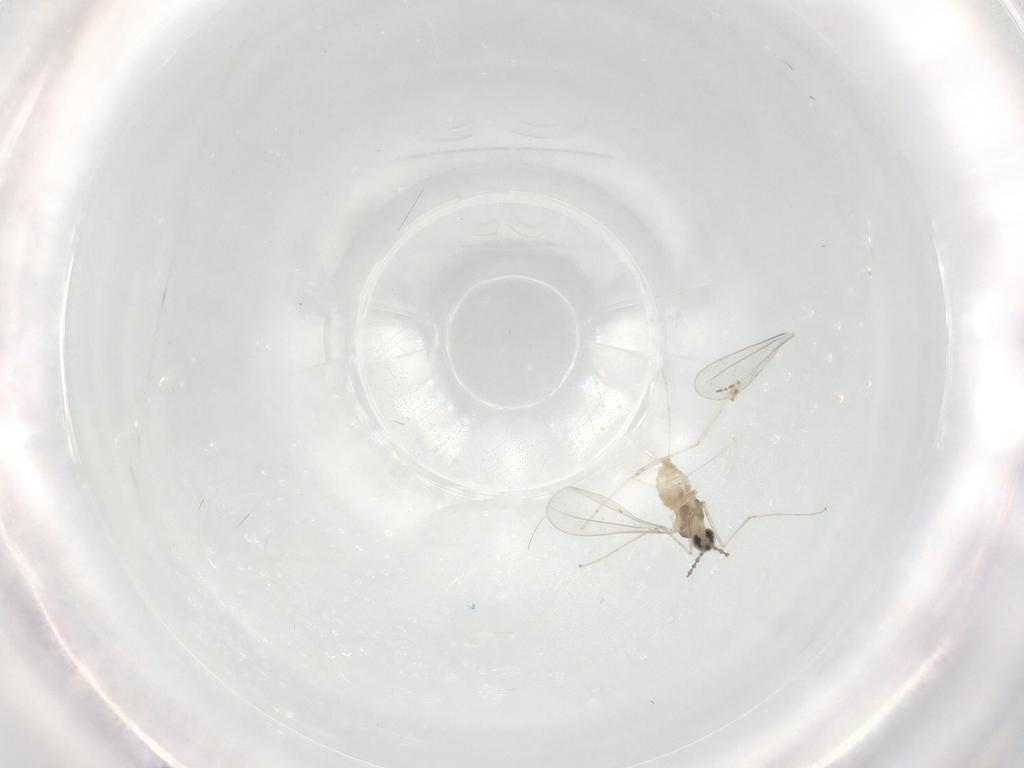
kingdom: Animalia
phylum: Arthropoda
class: Insecta
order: Diptera
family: Cecidomyiidae
